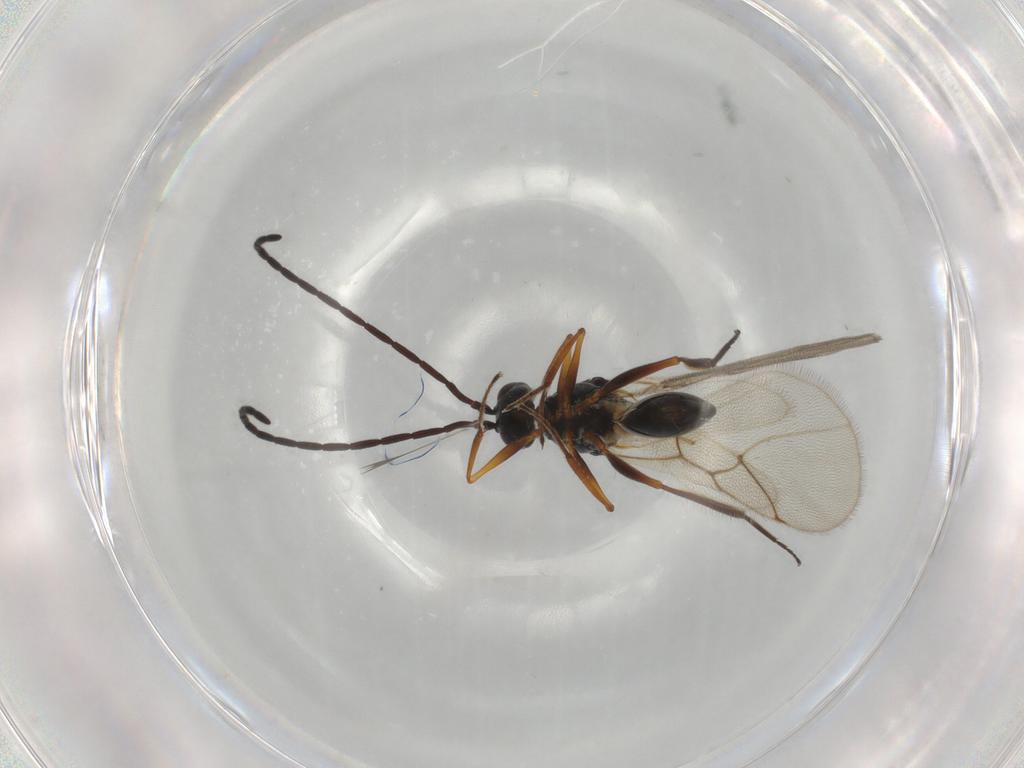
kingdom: Animalia
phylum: Arthropoda
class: Insecta
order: Hymenoptera
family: Figitidae
